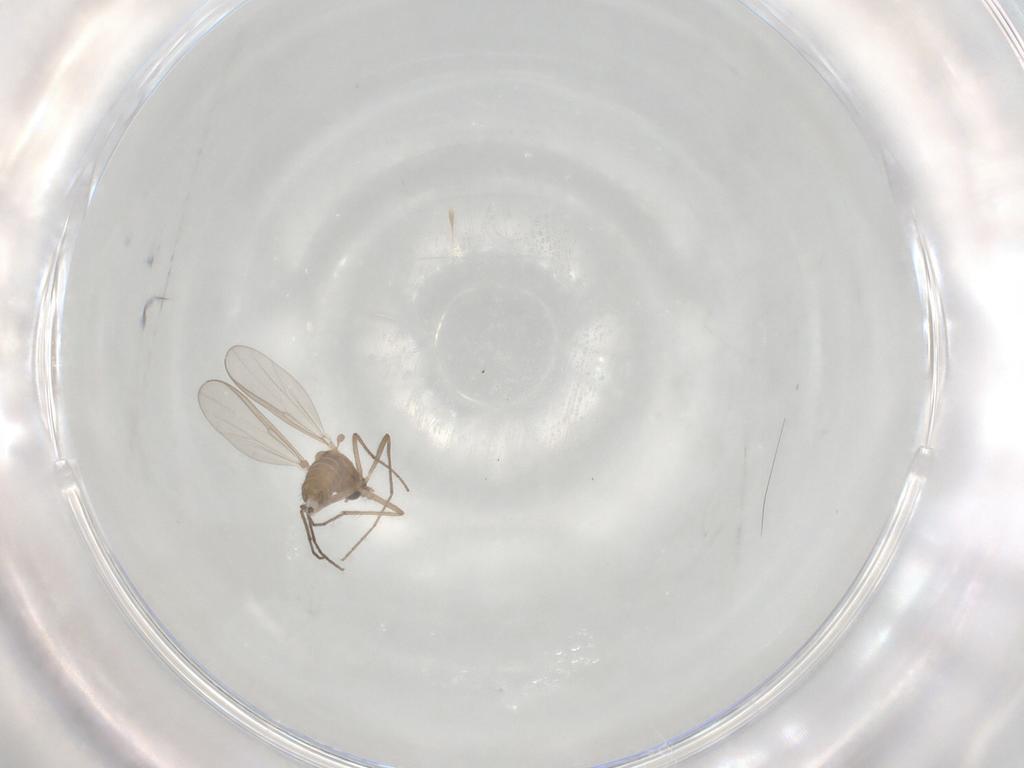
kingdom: Animalia
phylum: Arthropoda
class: Insecta
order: Diptera
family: Chironomidae
